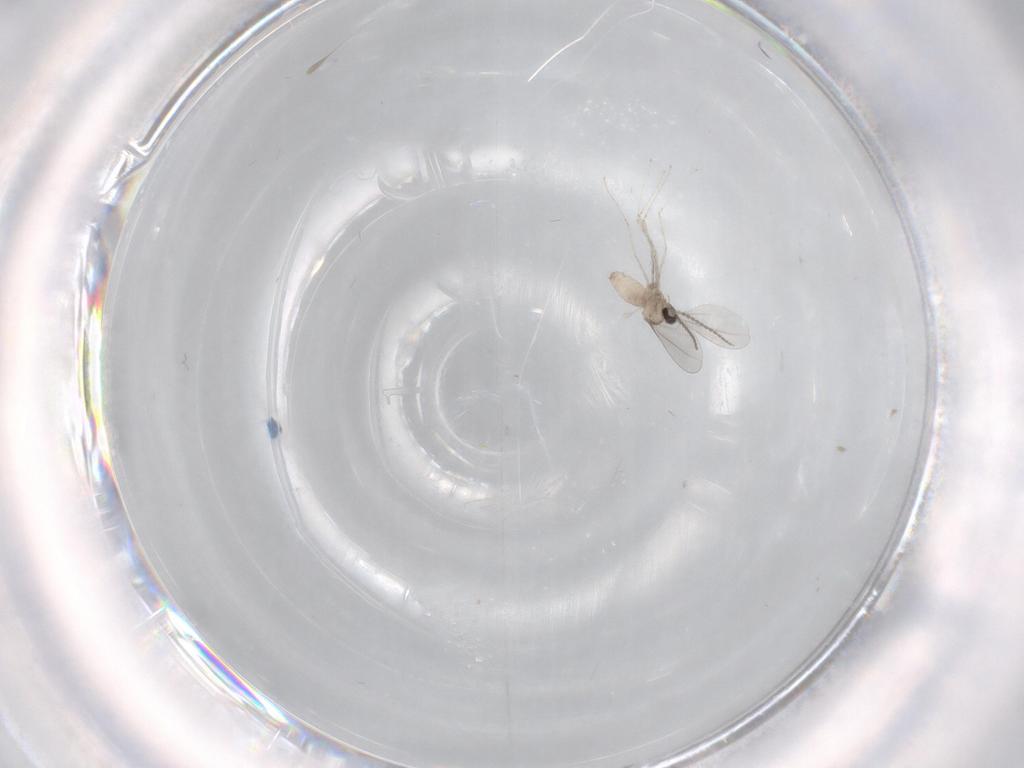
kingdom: Animalia
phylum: Arthropoda
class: Insecta
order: Diptera
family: Cecidomyiidae
